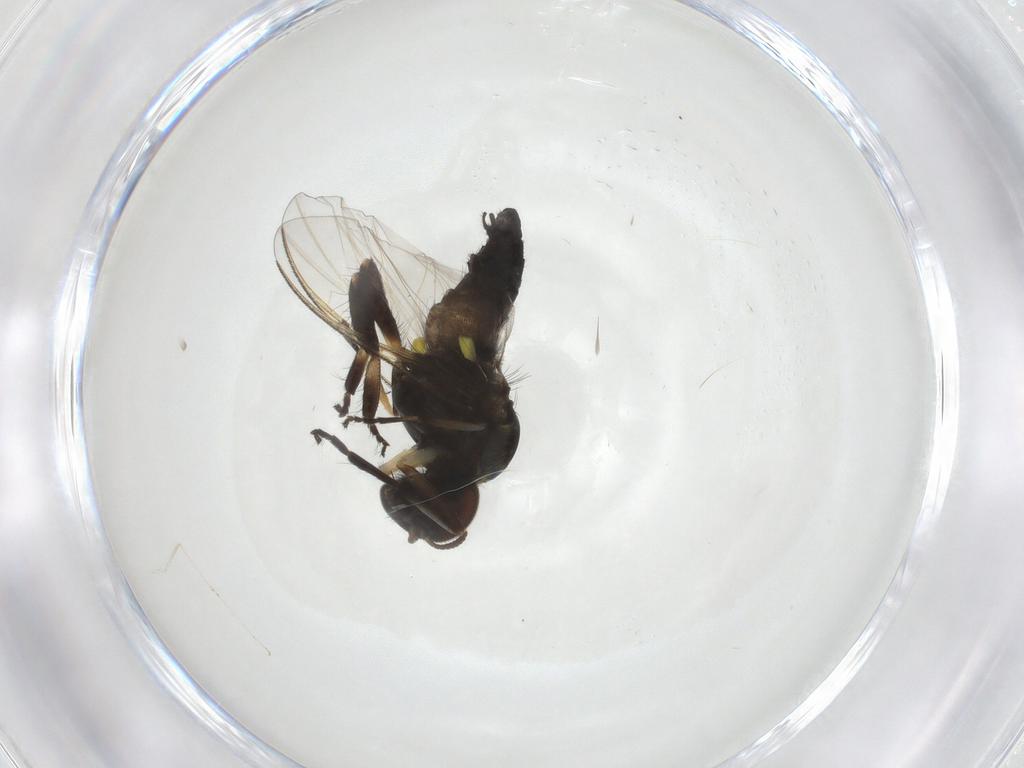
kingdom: Animalia
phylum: Arthropoda
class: Insecta
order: Diptera
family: Simuliidae
